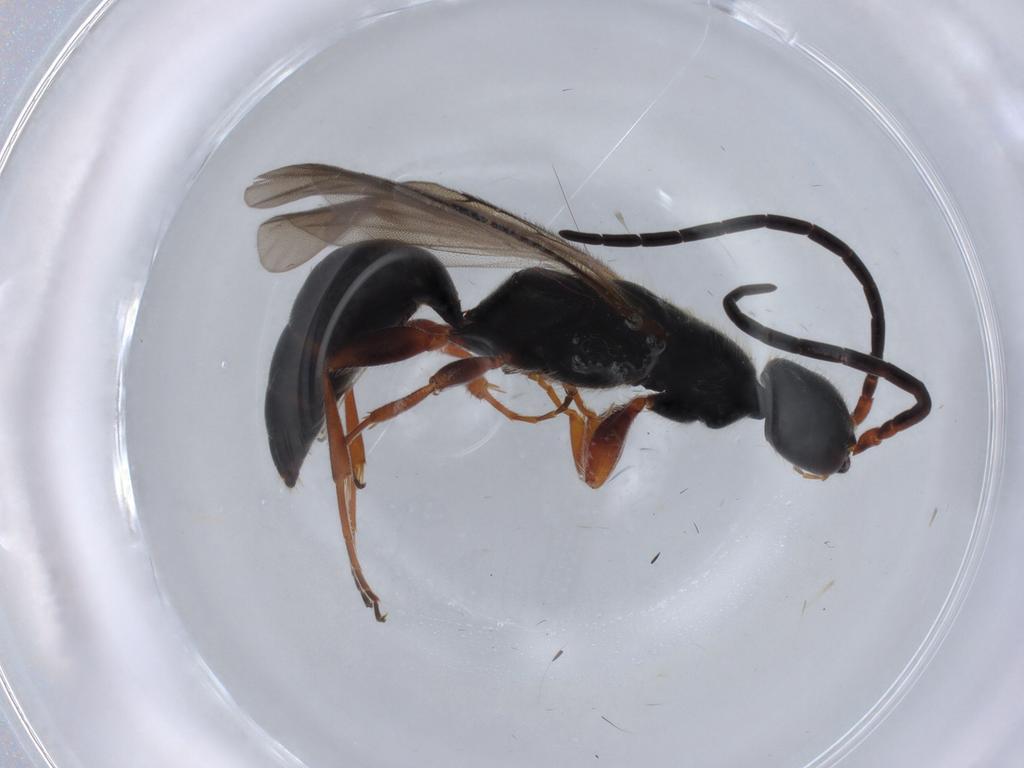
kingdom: Animalia
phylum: Arthropoda
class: Insecta
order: Hymenoptera
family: Bethylidae
